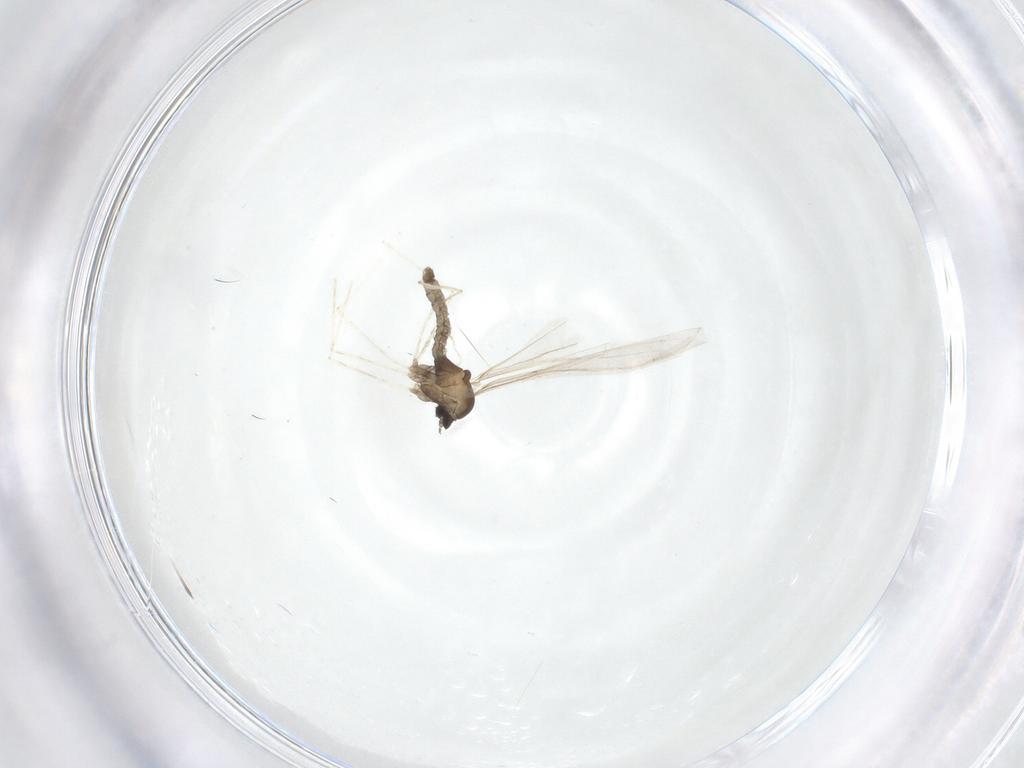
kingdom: Animalia
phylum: Arthropoda
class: Insecta
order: Diptera
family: Cecidomyiidae
